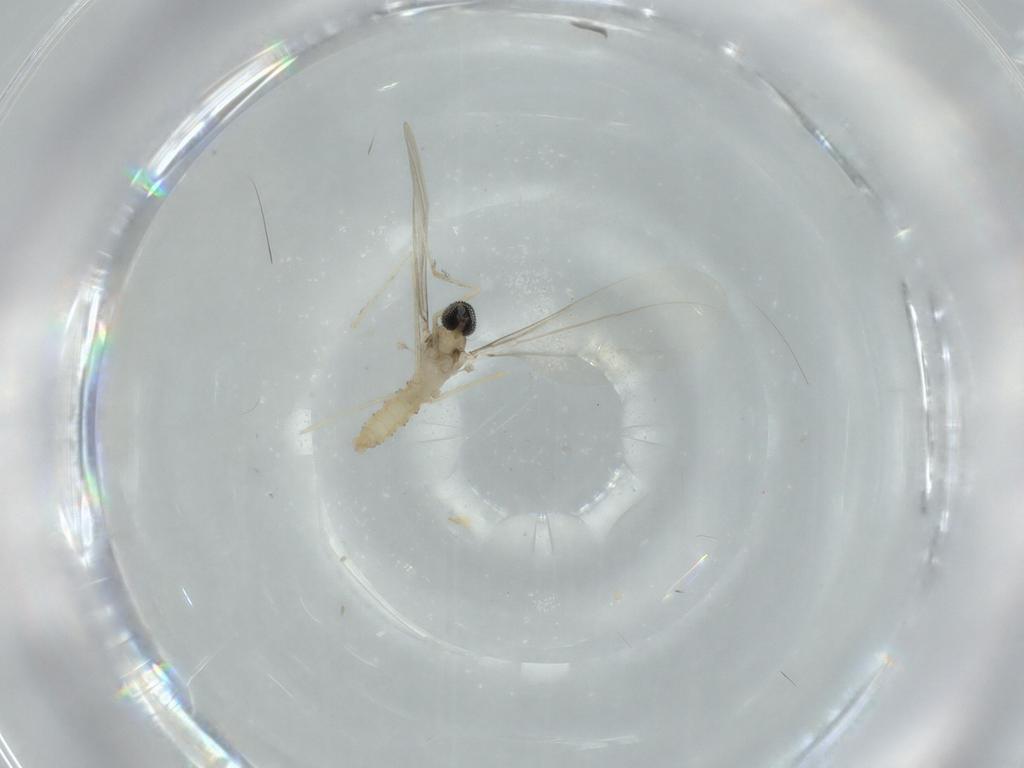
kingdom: Animalia
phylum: Arthropoda
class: Insecta
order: Diptera
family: Cecidomyiidae
